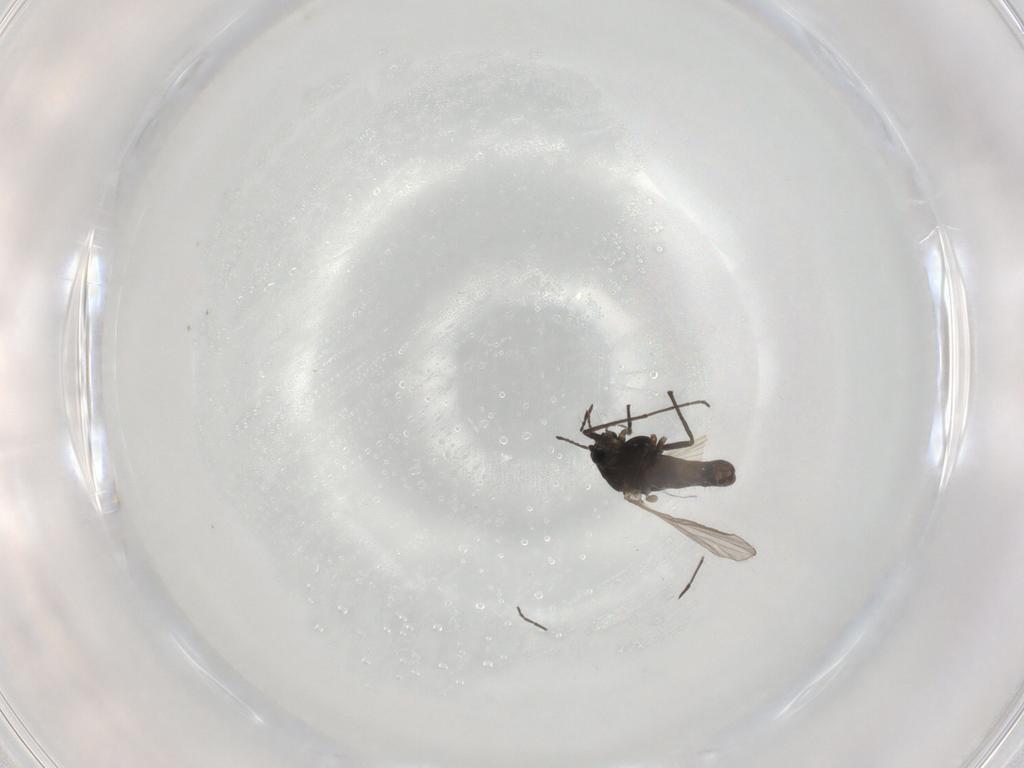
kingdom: Animalia
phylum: Arthropoda
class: Insecta
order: Diptera
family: Chironomidae
